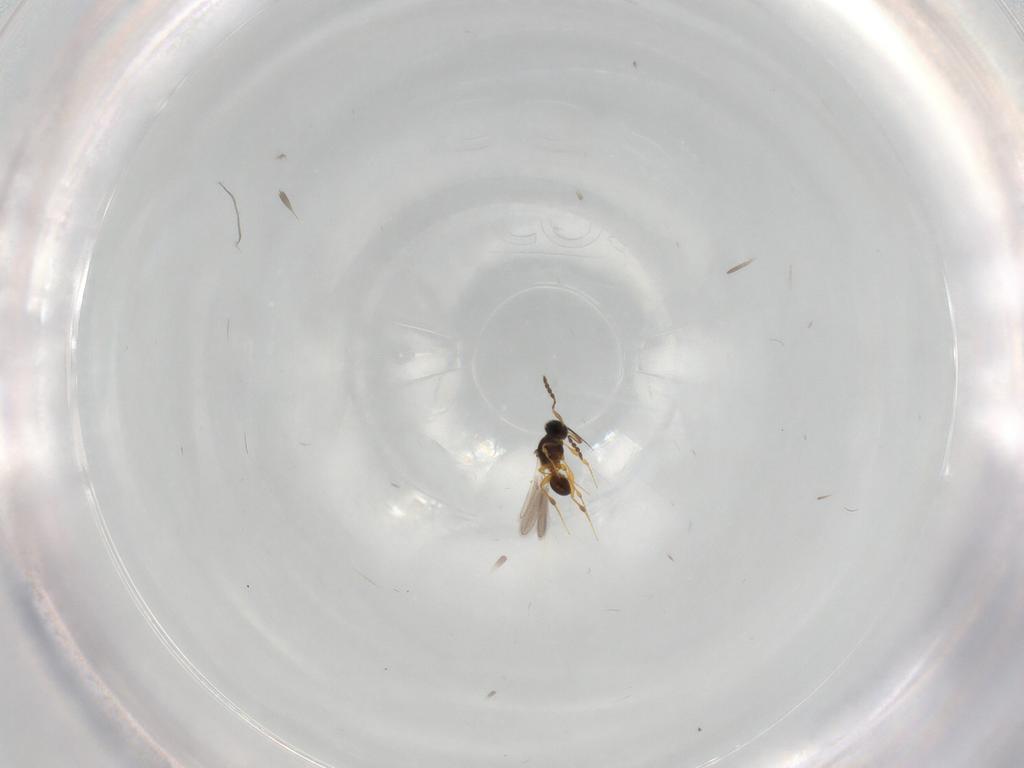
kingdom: Animalia
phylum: Arthropoda
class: Insecta
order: Hymenoptera
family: Platygastridae
